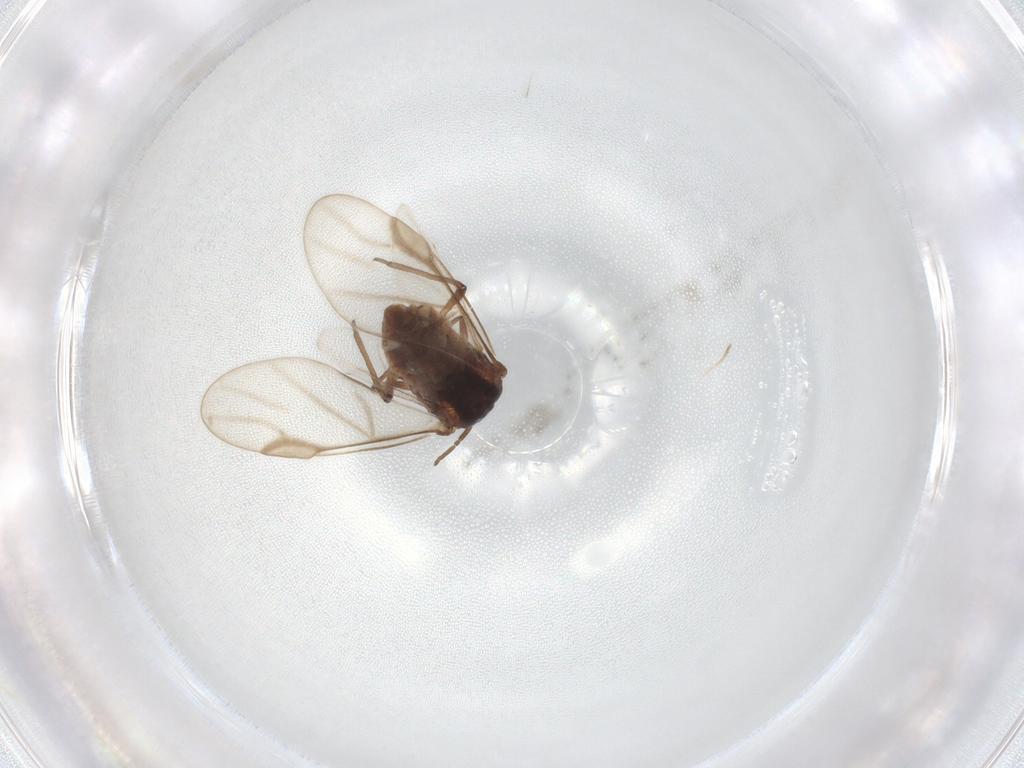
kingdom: Animalia
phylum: Arthropoda
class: Insecta
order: Hemiptera
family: Aphididae
